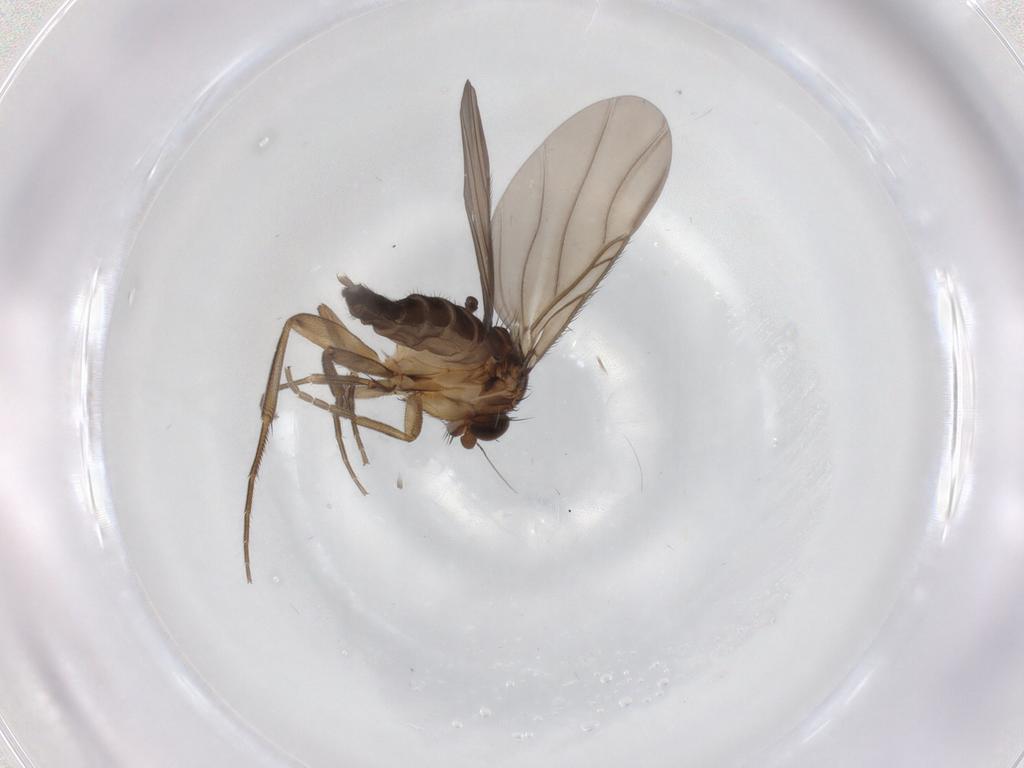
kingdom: Animalia
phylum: Arthropoda
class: Insecta
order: Diptera
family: Phoridae
